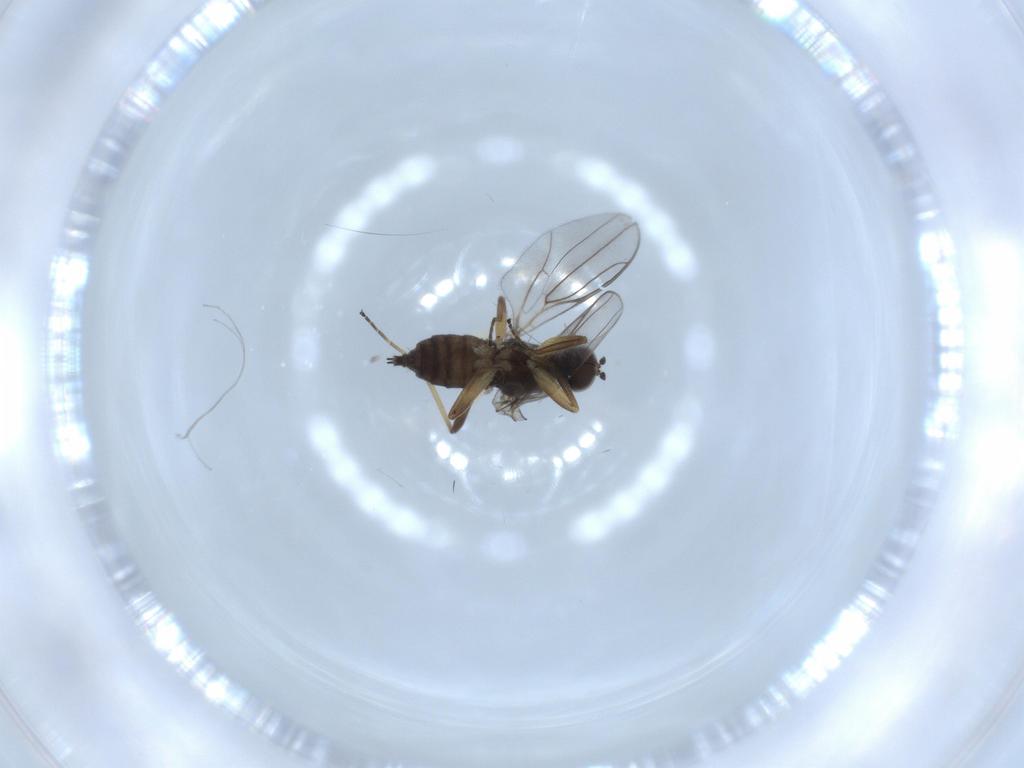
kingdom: Animalia
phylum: Arthropoda
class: Insecta
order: Diptera
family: Hybotidae
